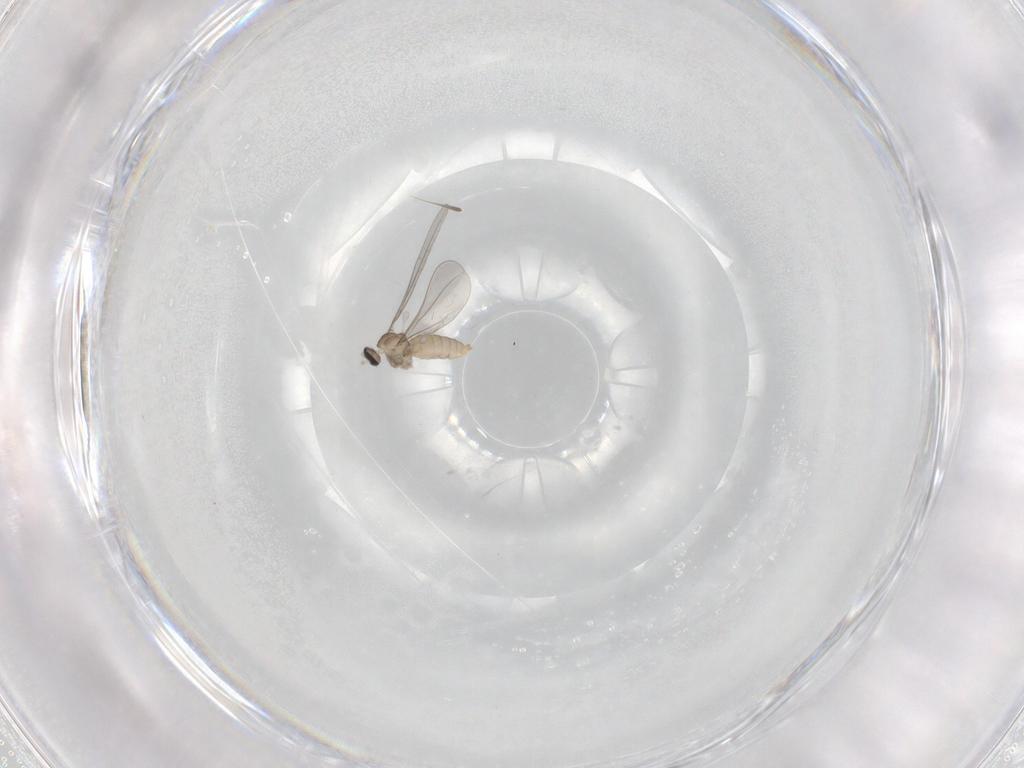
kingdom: Animalia
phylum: Arthropoda
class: Insecta
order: Diptera
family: Cecidomyiidae
